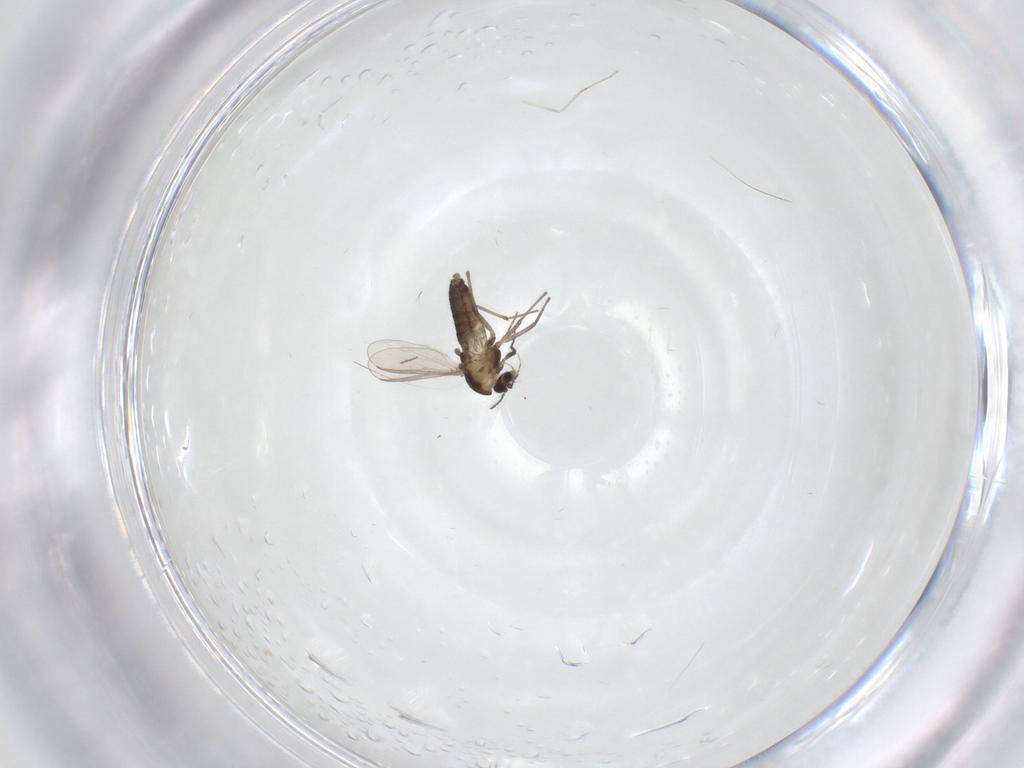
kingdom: Animalia
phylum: Arthropoda
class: Insecta
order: Diptera
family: Chironomidae
